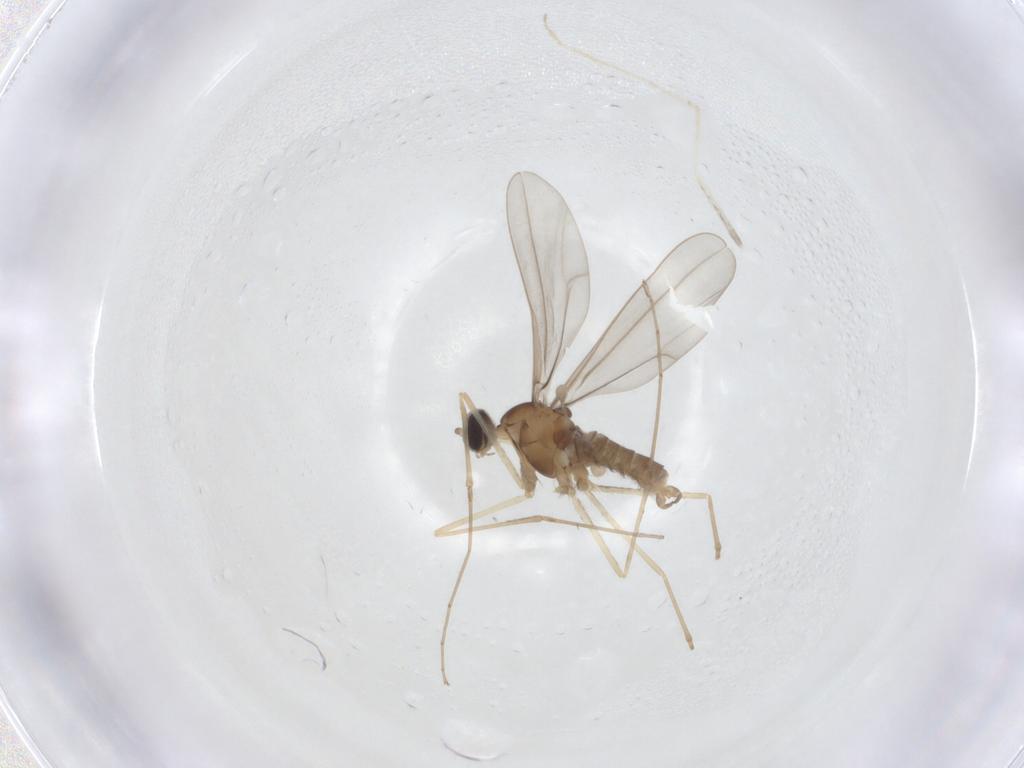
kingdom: Animalia
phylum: Arthropoda
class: Insecta
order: Diptera
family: Cecidomyiidae
